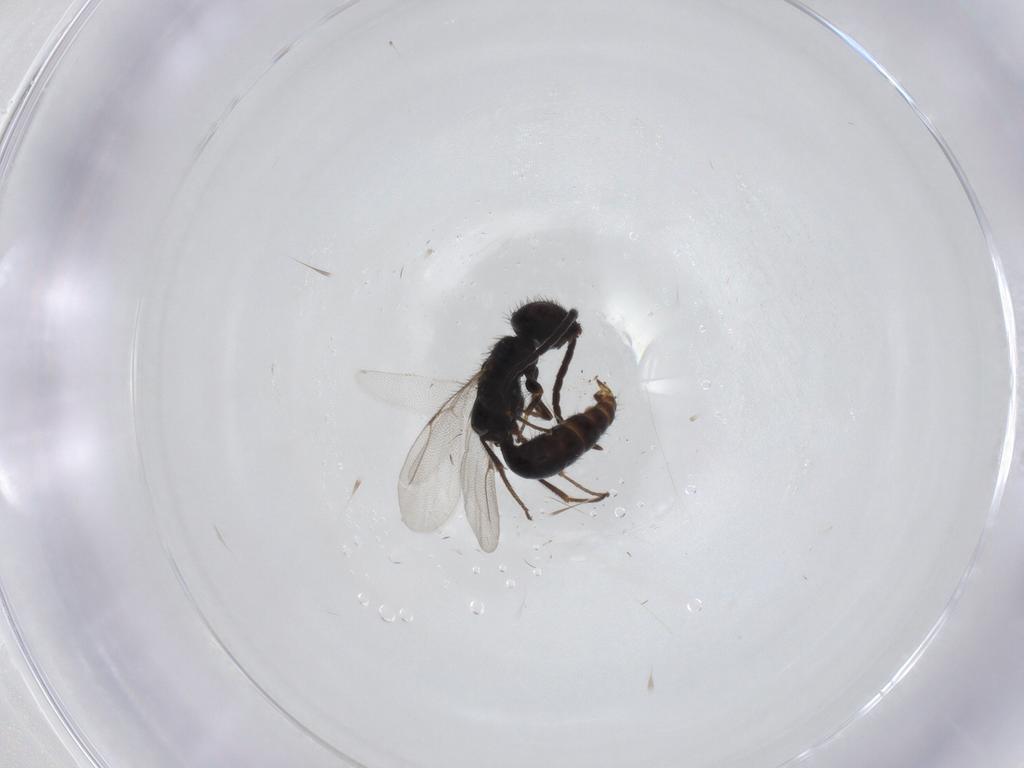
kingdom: Animalia
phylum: Arthropoda
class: Insecta
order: Hymenoptera
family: Bethylidae
